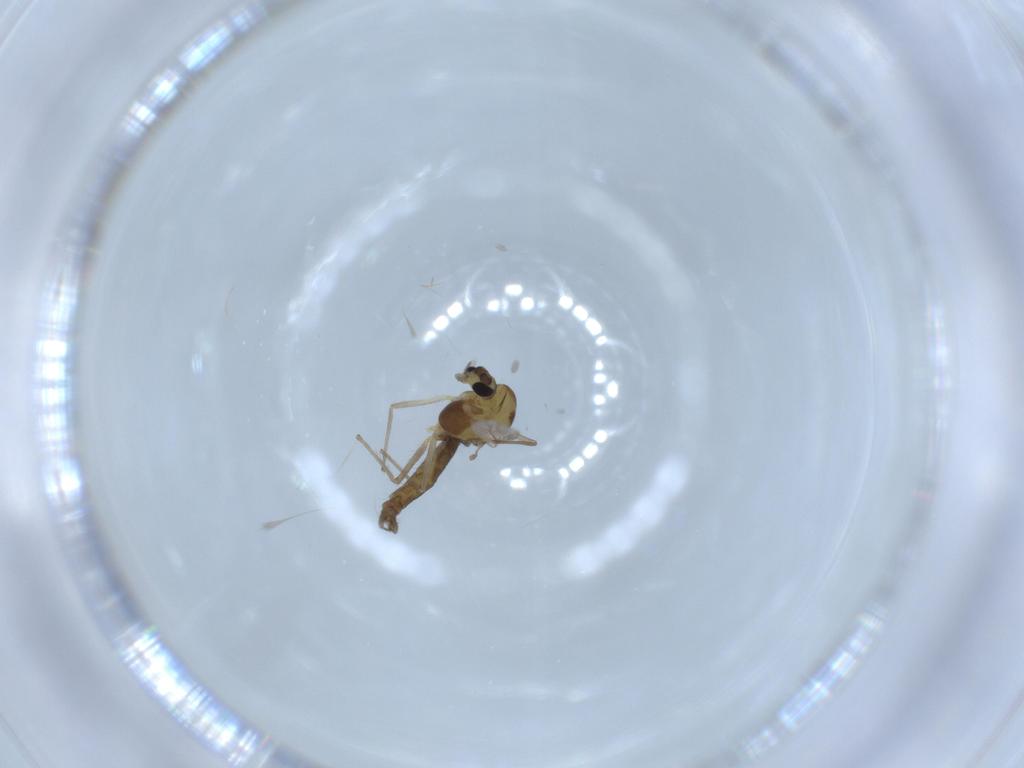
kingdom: Animalia
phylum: Arthropoda
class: Insecta
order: Diptera
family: Chironomidae
